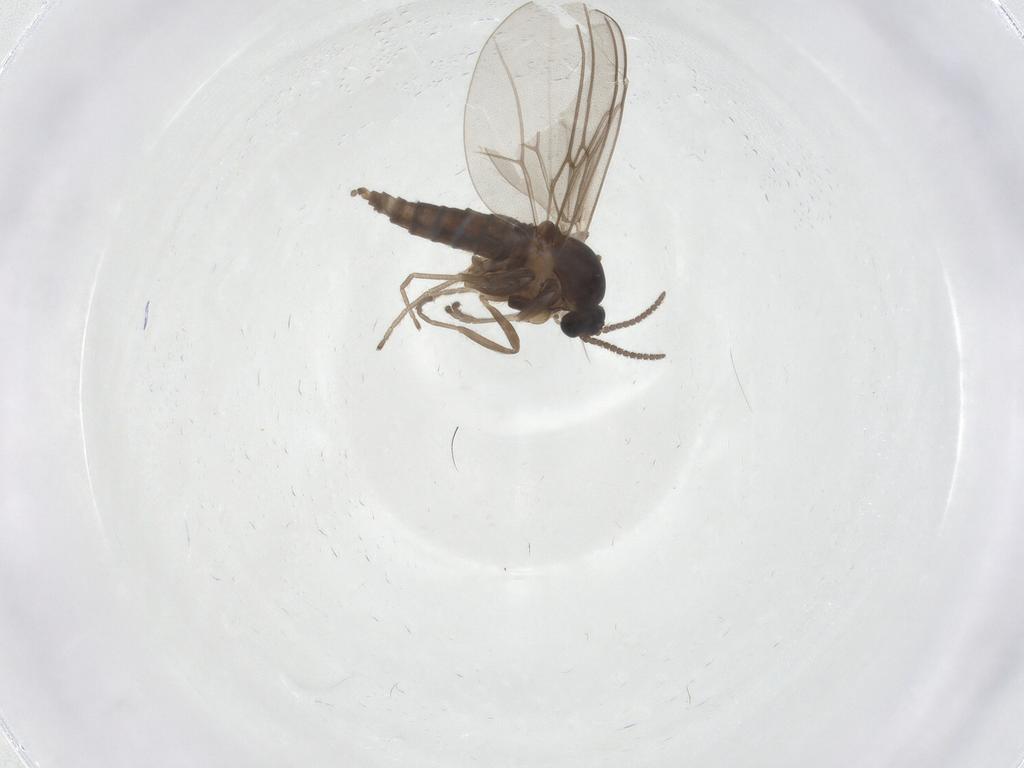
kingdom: Animalia
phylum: Arthropoda
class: Insecta
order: Diptera
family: Cecidomyiidae
